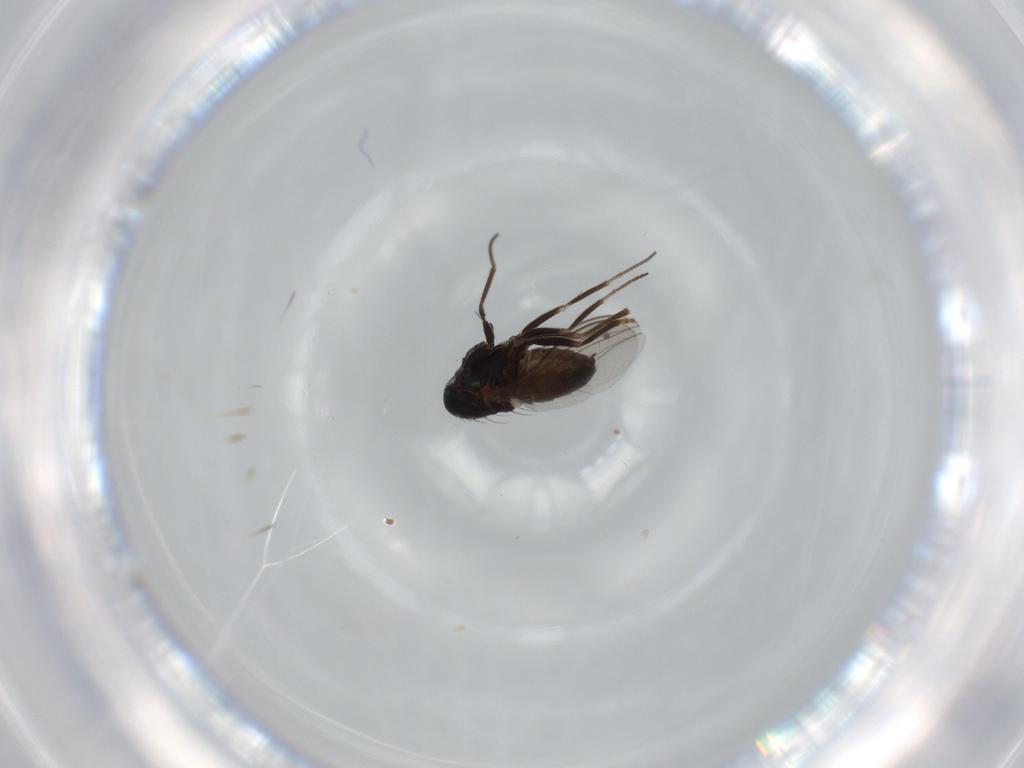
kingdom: Animalia
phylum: Arthropoda
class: Insecta
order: Diptera
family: Dolichopodidae
